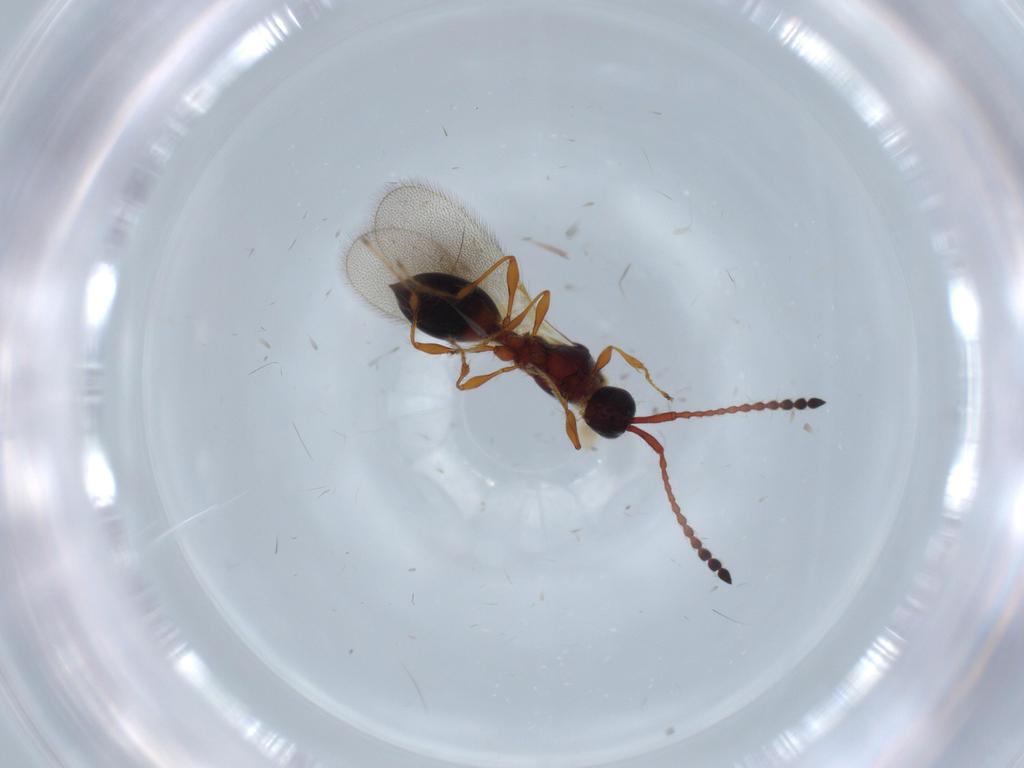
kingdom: Animalia
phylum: Arthropoda
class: Insecta
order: Hymenoptera
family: Diapriidae
